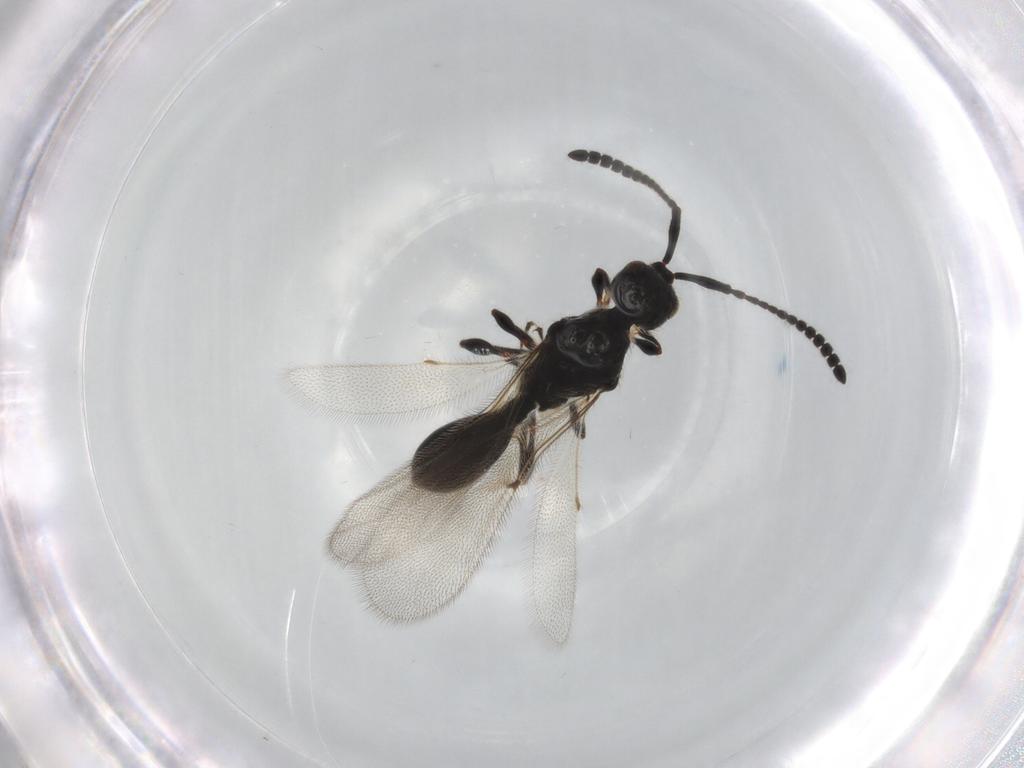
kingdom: Animalia
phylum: Arthropoda
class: Insecta
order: Hymenoptera
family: Diapriidae
